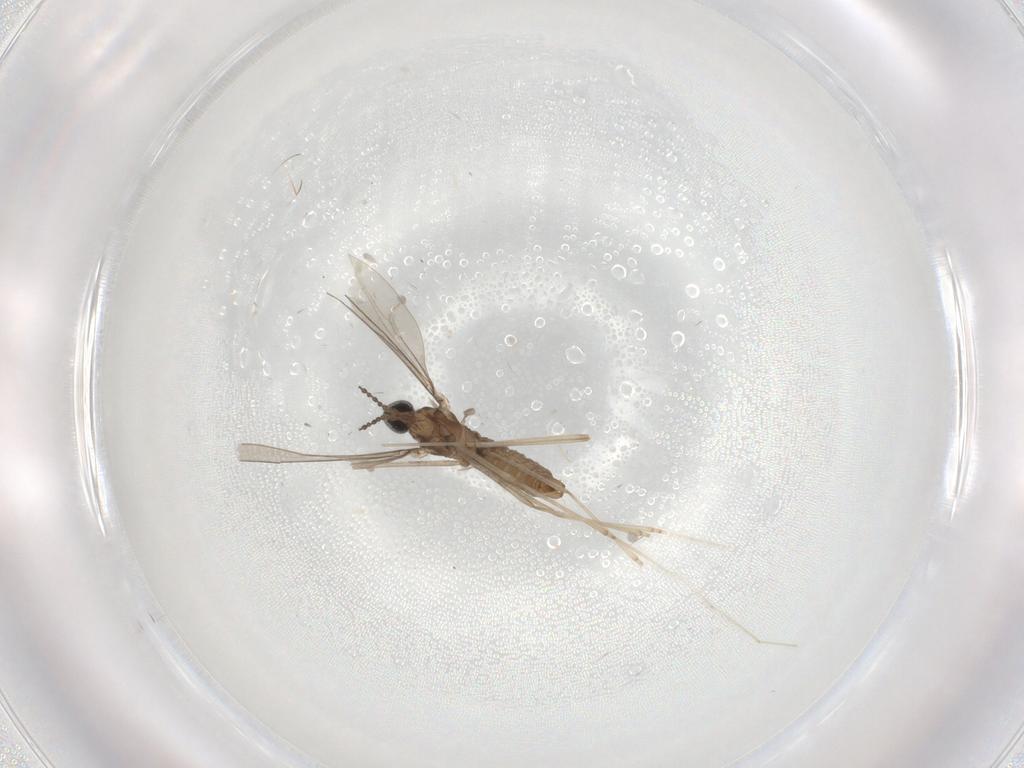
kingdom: Animalia
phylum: Arthropoda
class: Insecta
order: Diptera
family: Cecidomyiidae
